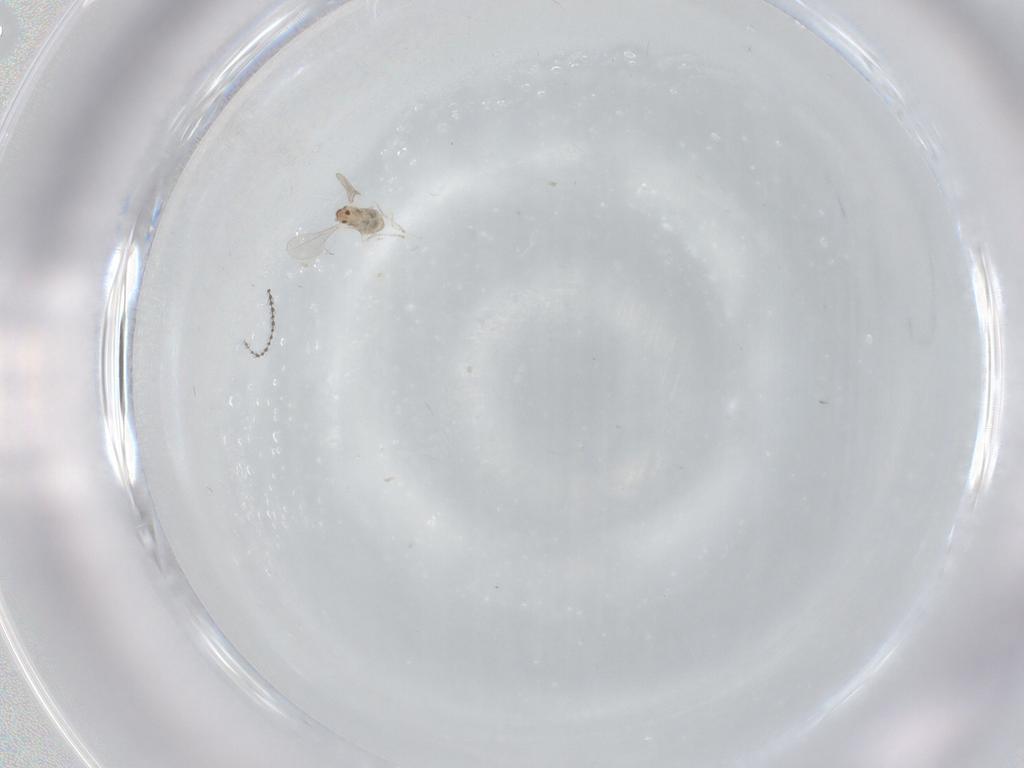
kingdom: Animalia
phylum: Arthropoda
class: Insecta
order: Diptera
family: Cecidomyiidae
